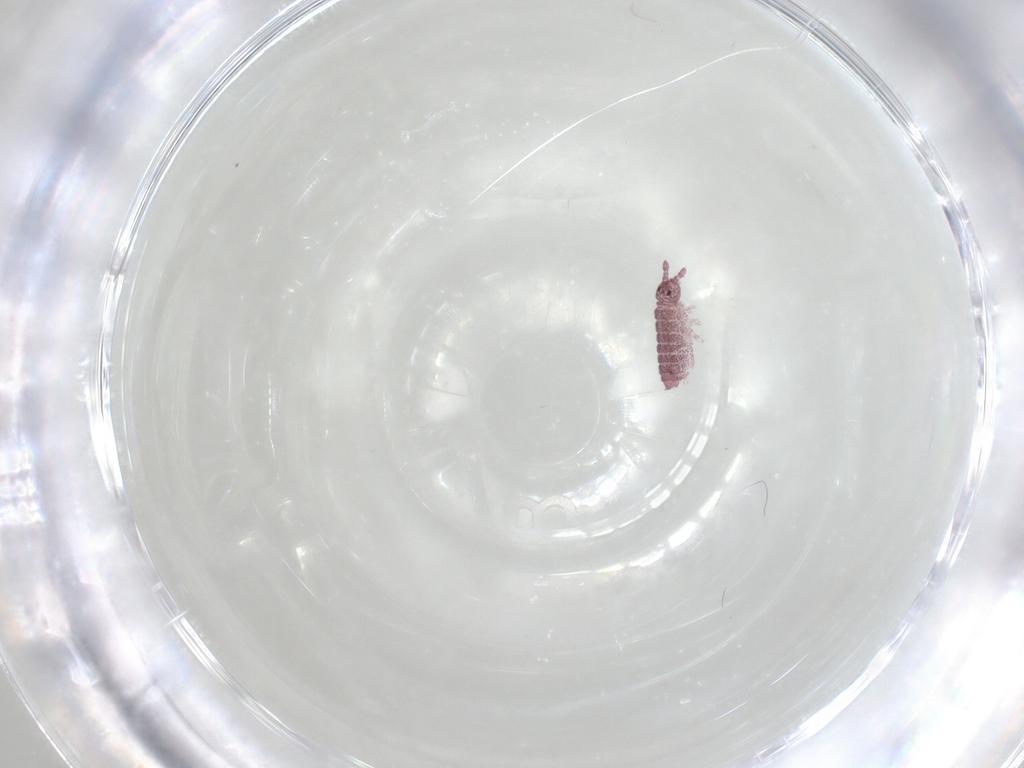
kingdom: Animalia
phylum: Arthropoda
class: Collembola
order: Poduromorpha
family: Hypogastruridae
